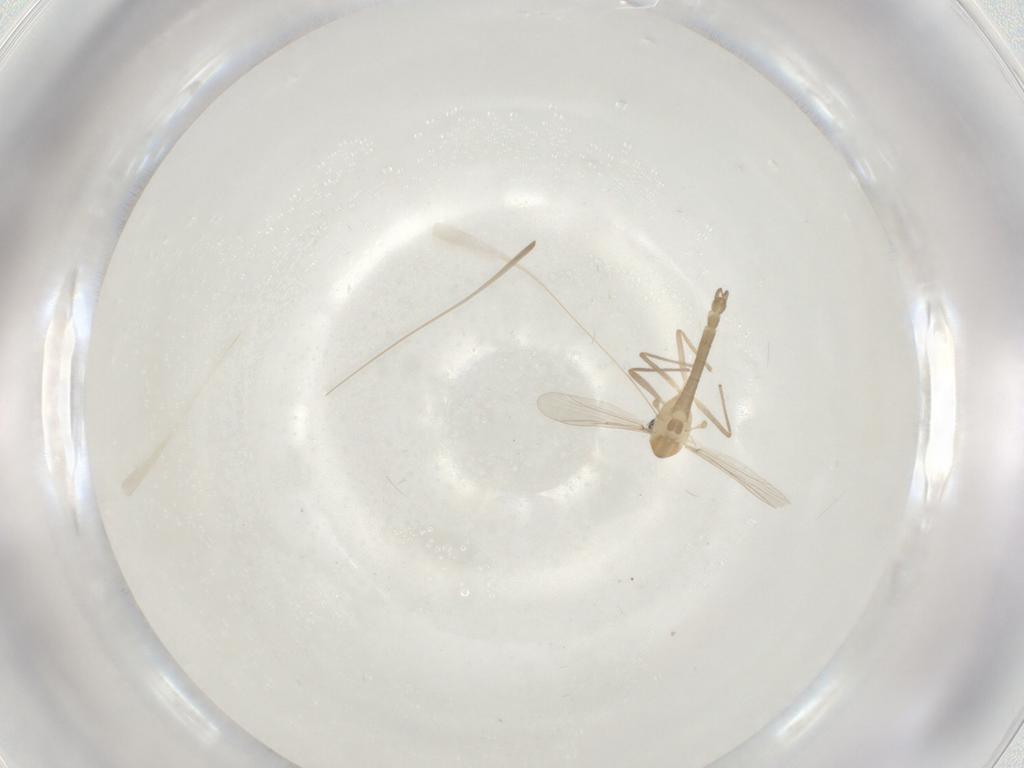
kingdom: Animalia
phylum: Arthropoda
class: Insecta
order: Diptera
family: Chironomidae
